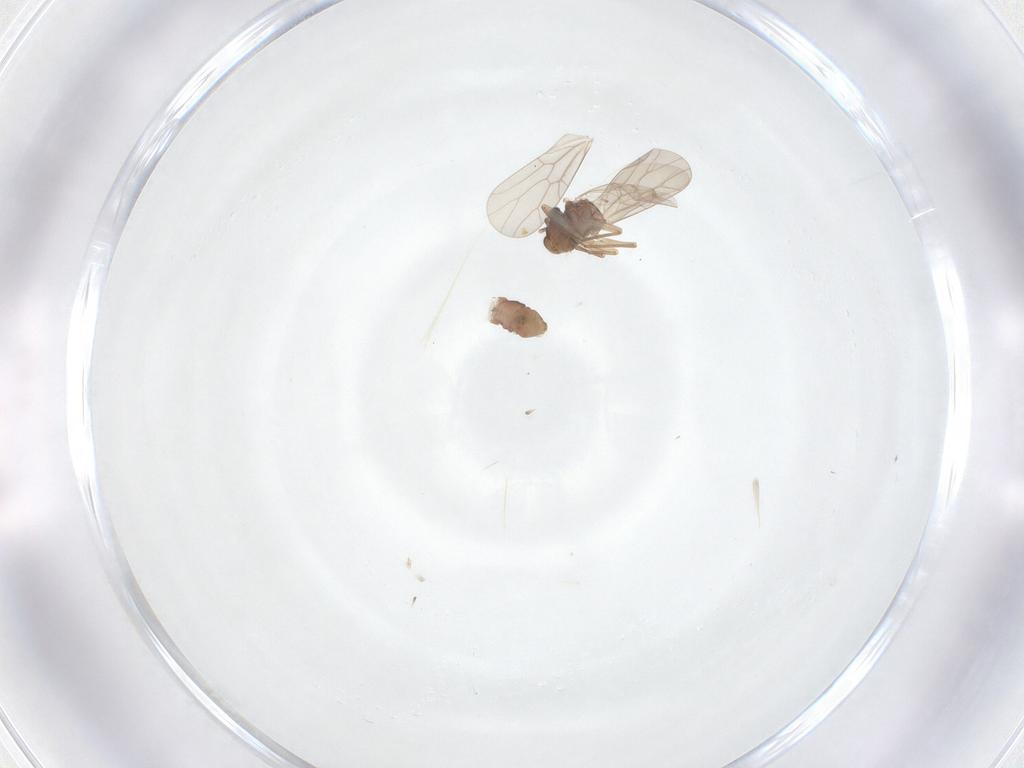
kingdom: Animalia
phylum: Arthropoda
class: Insecta
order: Psocodea
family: Lepidopsocidae
